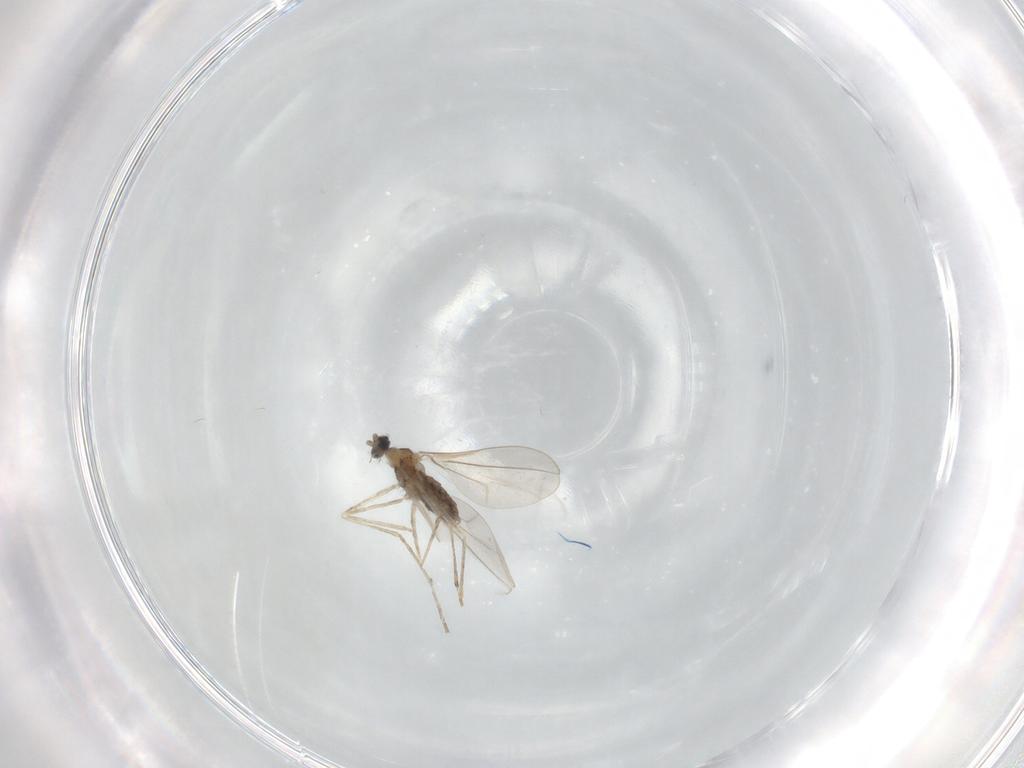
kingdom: Animalia
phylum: Arthropoda
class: Insecta
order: Diptera
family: Cecidomyiidae
